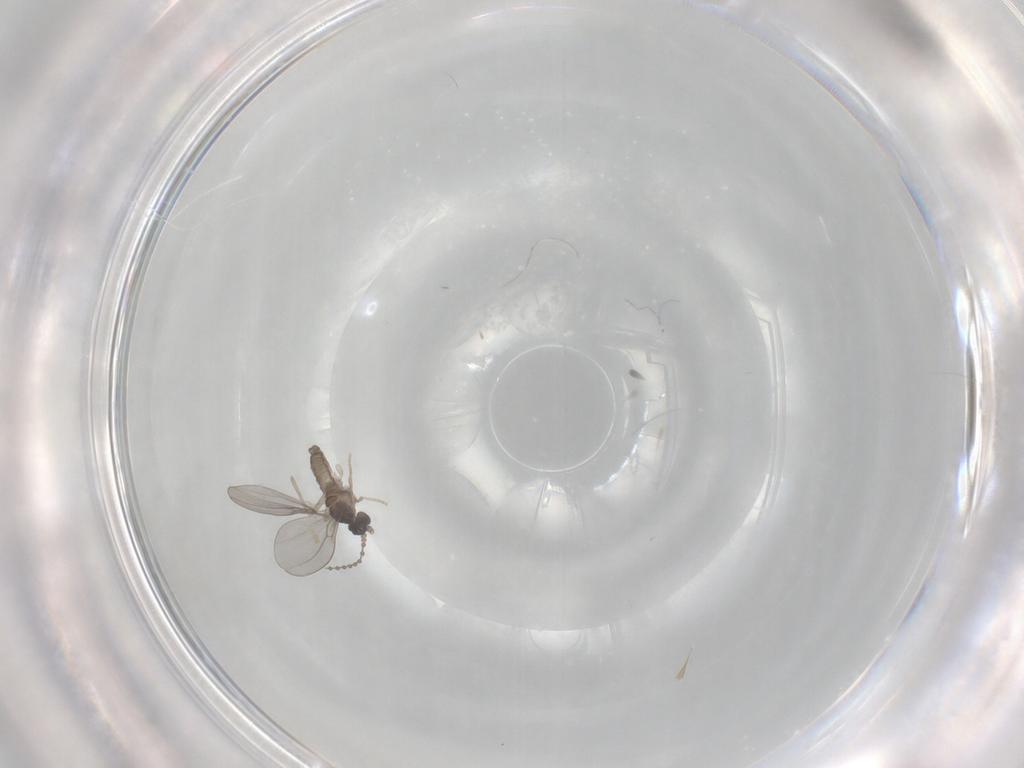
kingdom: Animalia
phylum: Arthropoda
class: Insecta
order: Diptera
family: Cecidomyiidae
